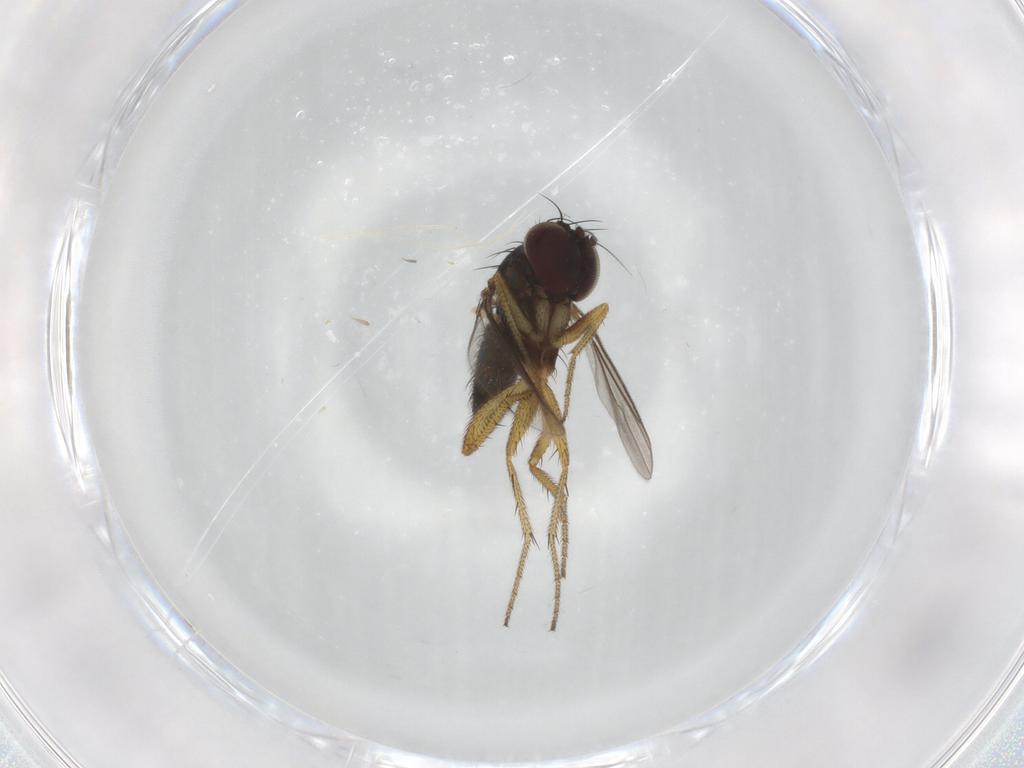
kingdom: Animalia
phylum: Arthropoda
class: Insecta
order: Diptera
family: Dolichopodidae
